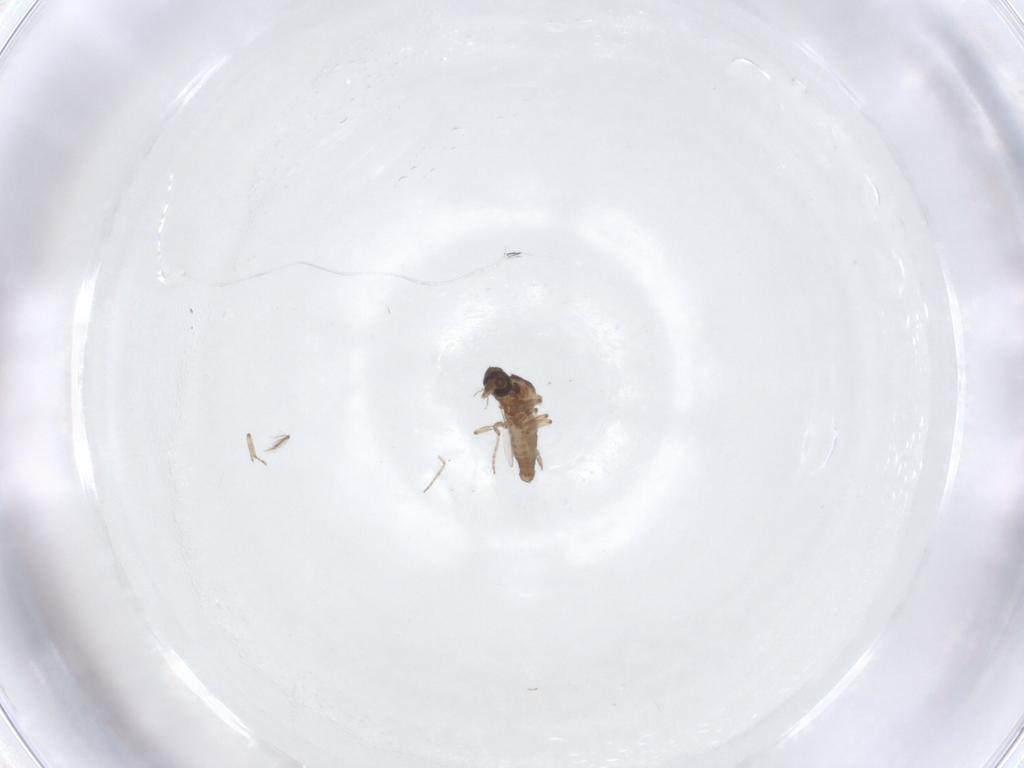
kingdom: Animalia
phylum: Arthropoda
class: Insecta
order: Diptera
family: Ceratopogonidae
